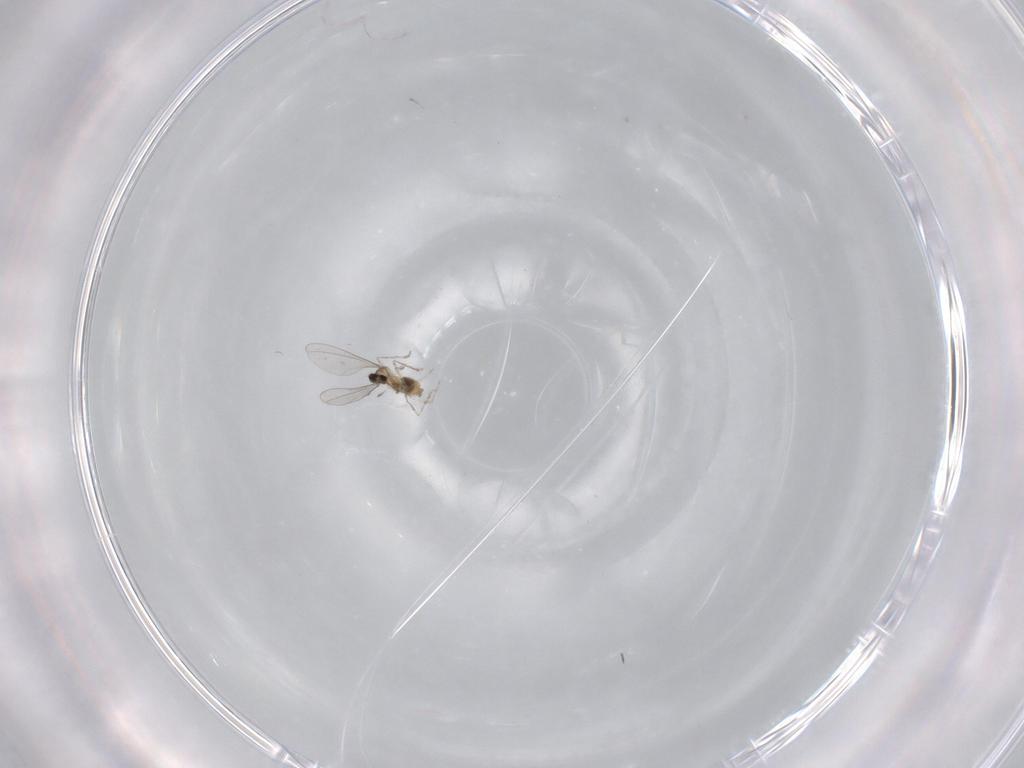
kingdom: Animalia
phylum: Arthropoda
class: Insecta
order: Diptera
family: Cecidomyiidae
